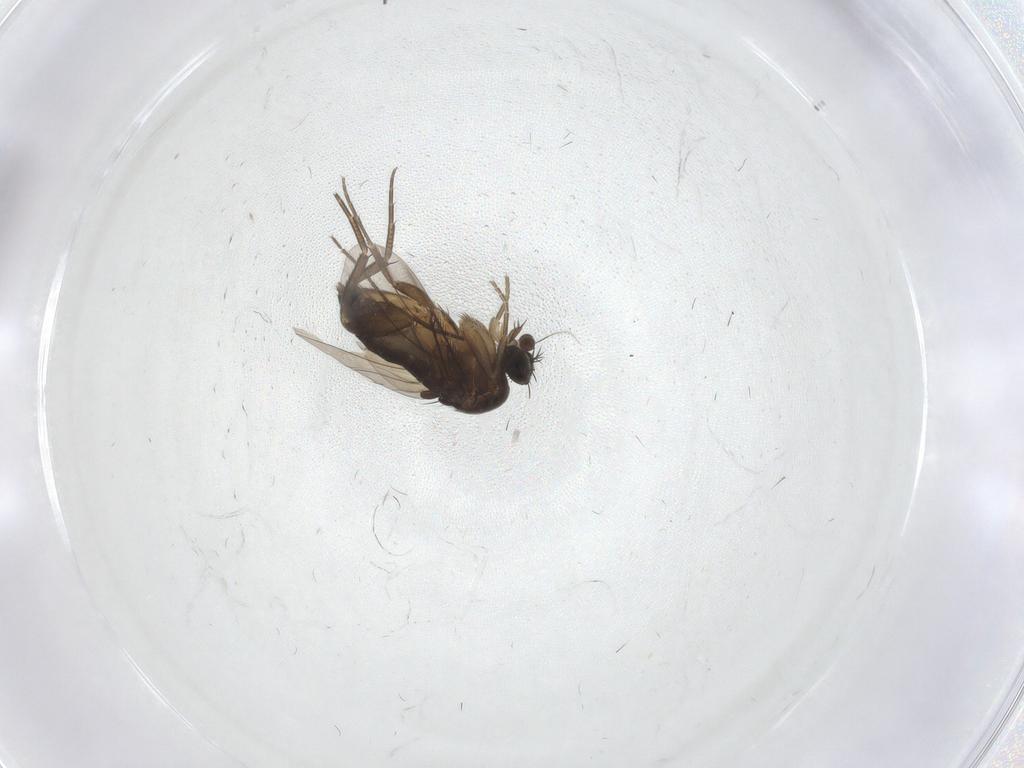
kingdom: Animalia
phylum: Arthropoda
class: Insecta
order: Diptera
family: Phoridae
